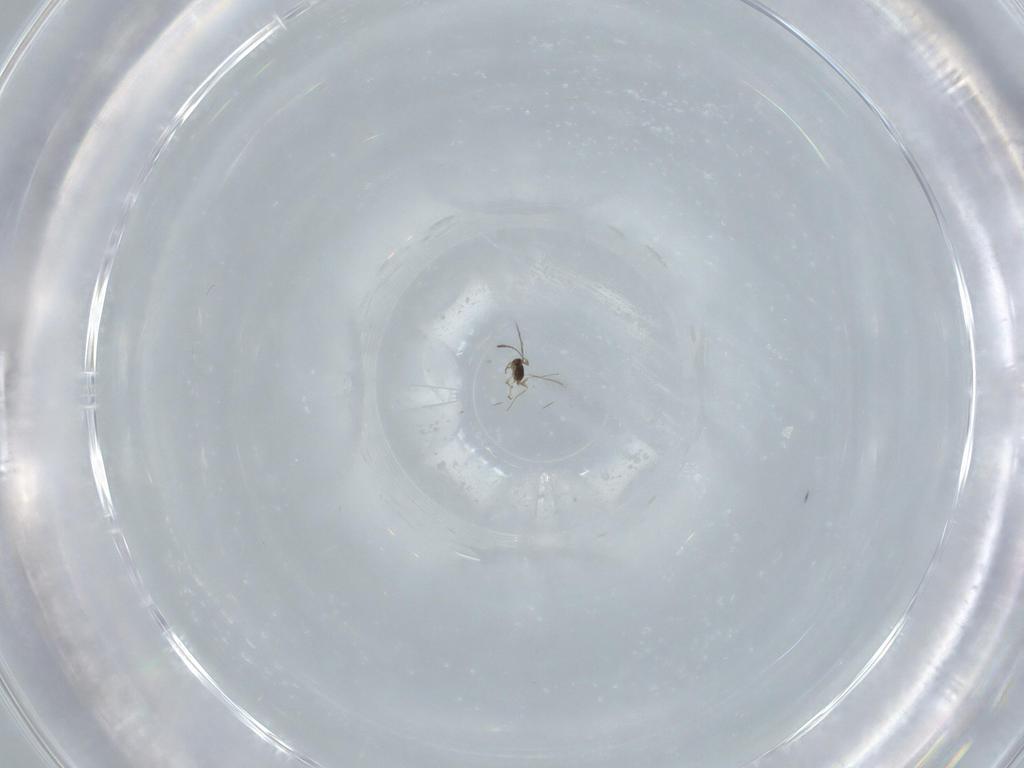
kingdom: Animalia
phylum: Arthropoda
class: Insecta
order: Hymenoptera
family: Mymaridae
